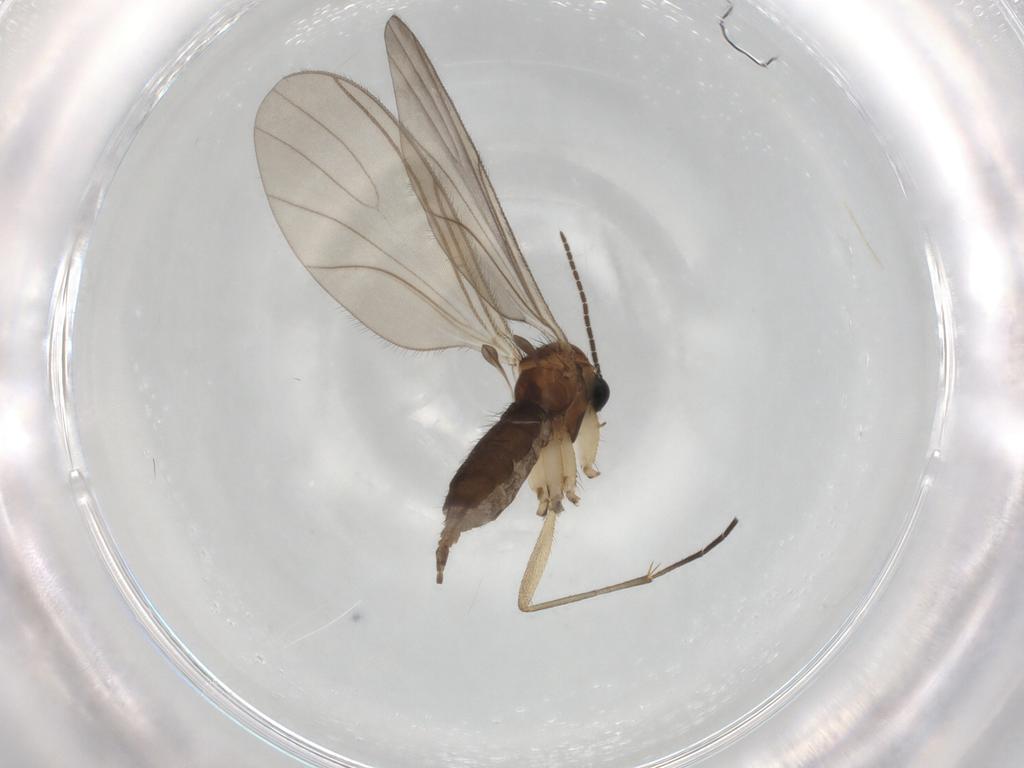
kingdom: Animalia
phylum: Arthropoda
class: Insecta
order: Diptera
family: Sciaridae
